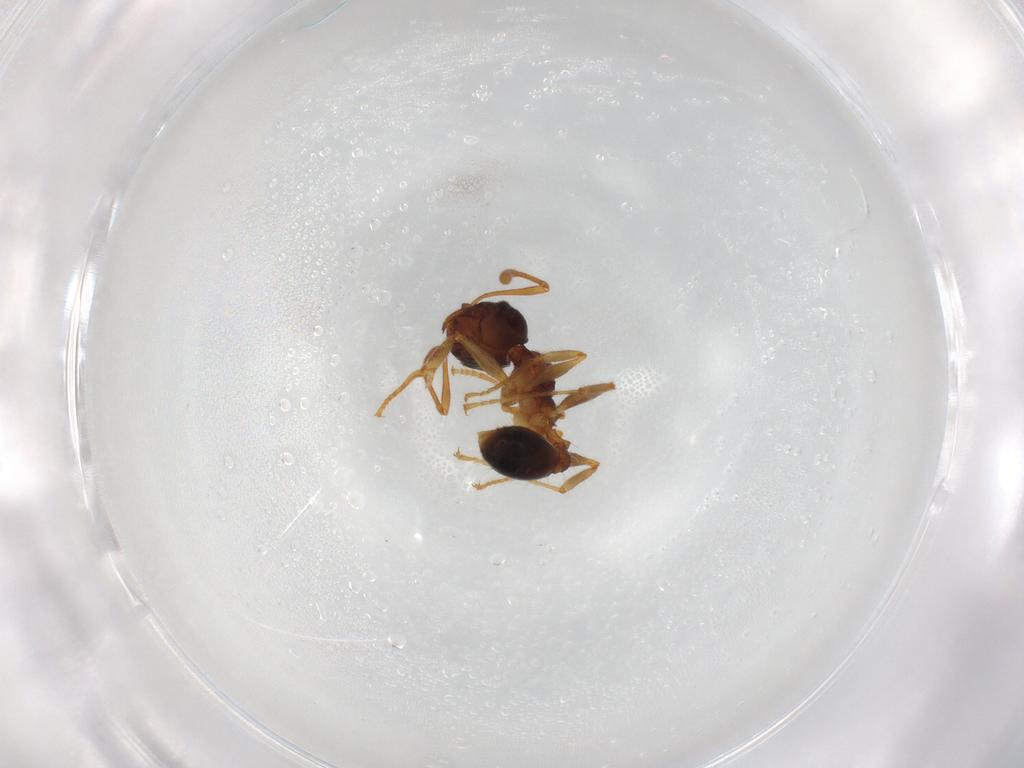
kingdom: Animalia
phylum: Arthropoda
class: Insecta
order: Hymenoptera
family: Formicidae
